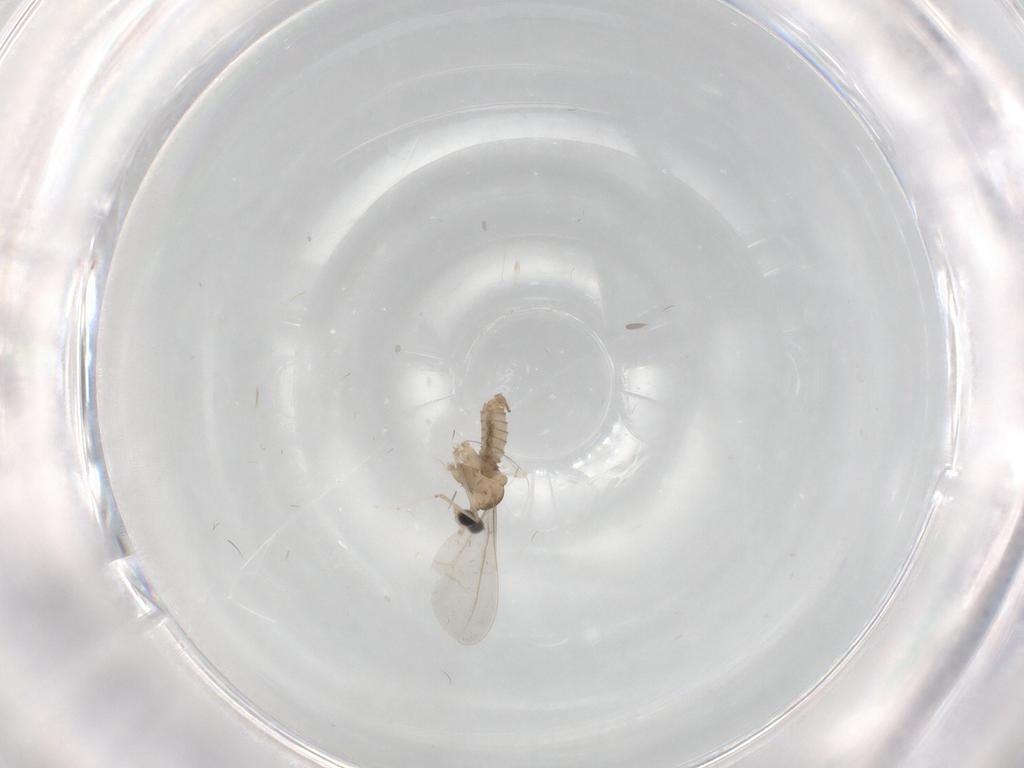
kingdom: Animalia
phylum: Arthropoda
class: Insecta
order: Diptera
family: Cecidomyiidae
